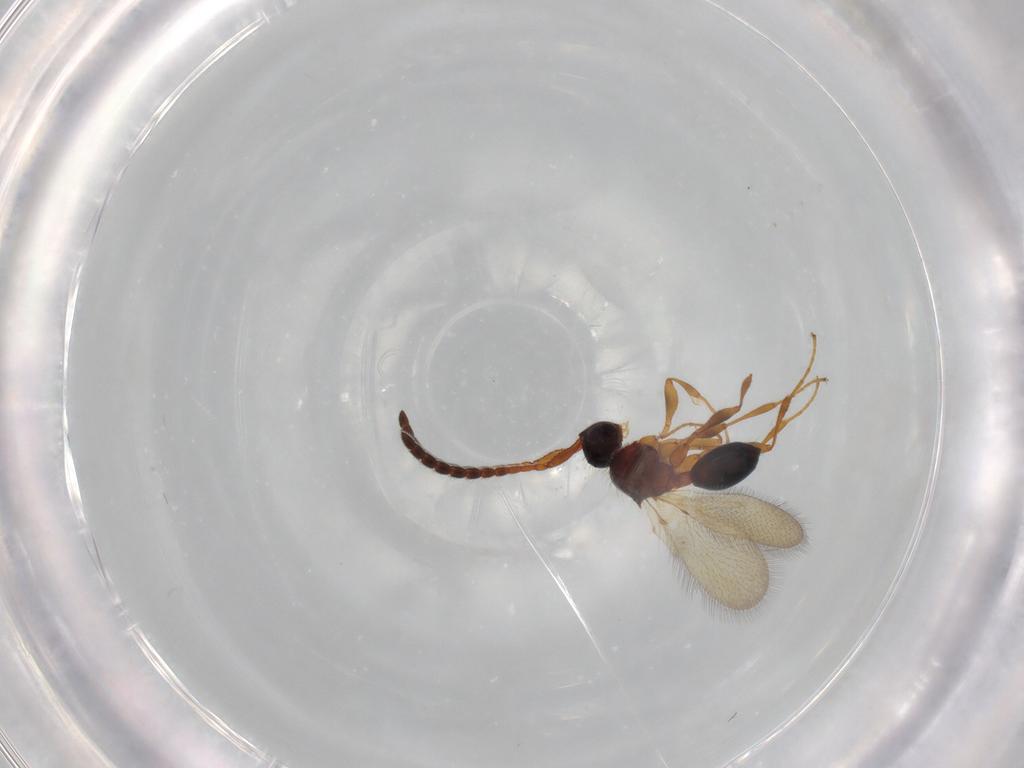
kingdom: Animalia
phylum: Arthropoda
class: Insecta
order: Hymenoptera
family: Diapriidae
